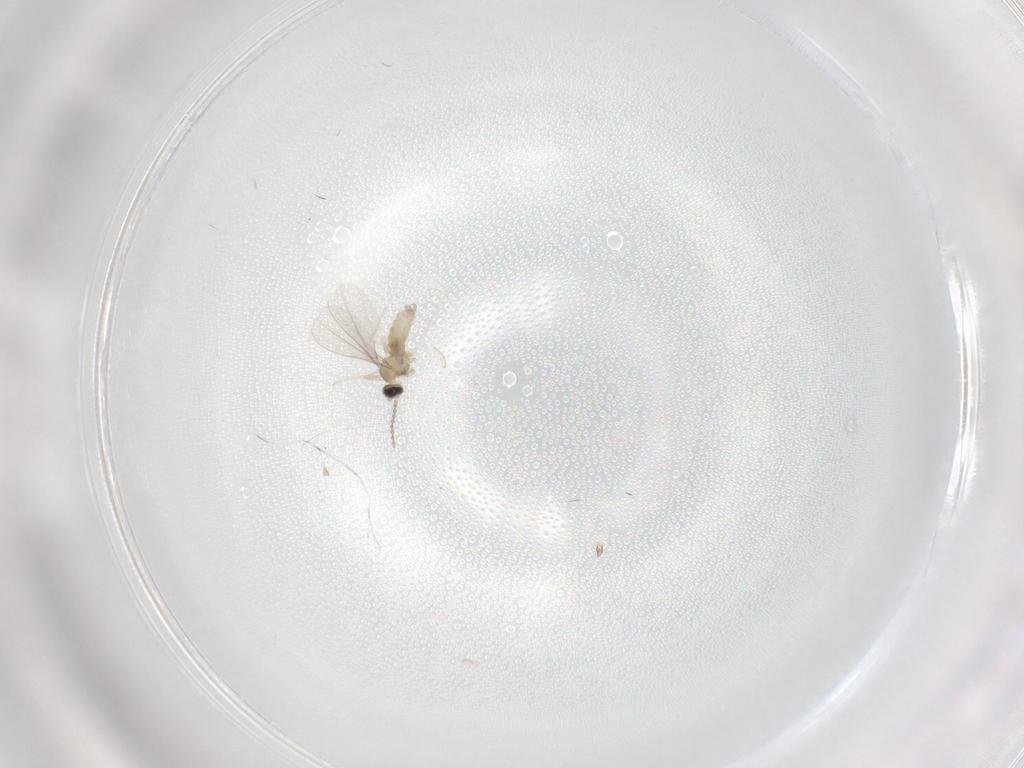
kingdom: Animalia
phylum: Arthropoda
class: Insecta
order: Diptera
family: Cecidomyiidae
